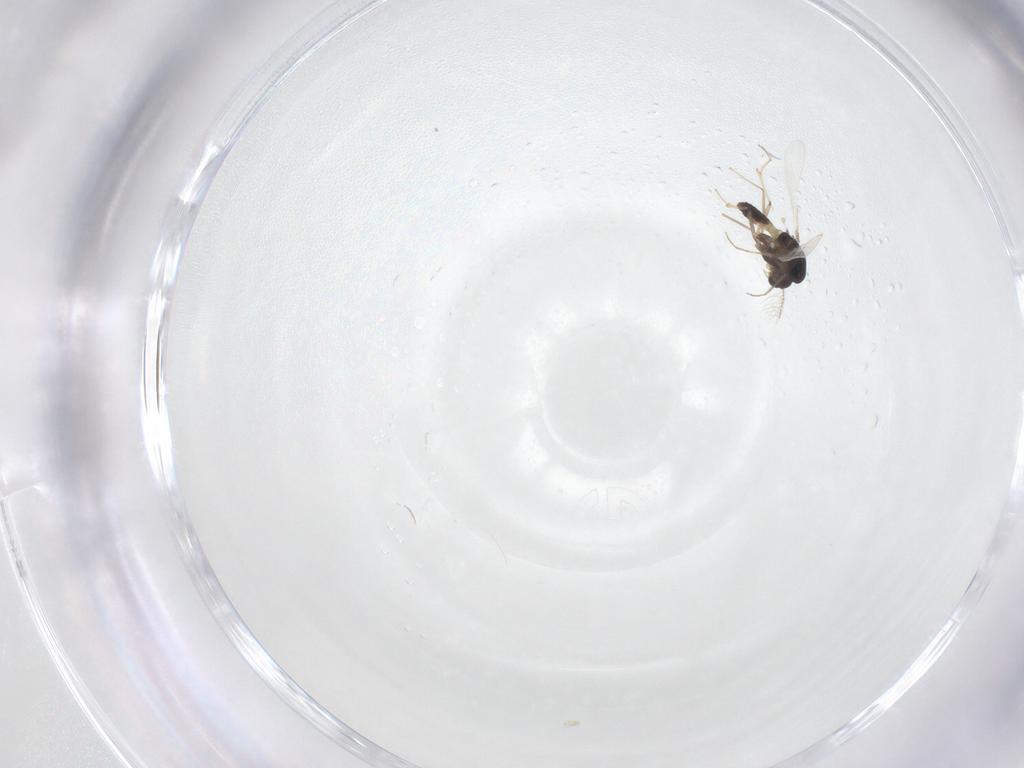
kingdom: Animalia
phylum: Arthropoda
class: Insecta
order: Diptera
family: Chironomidae
